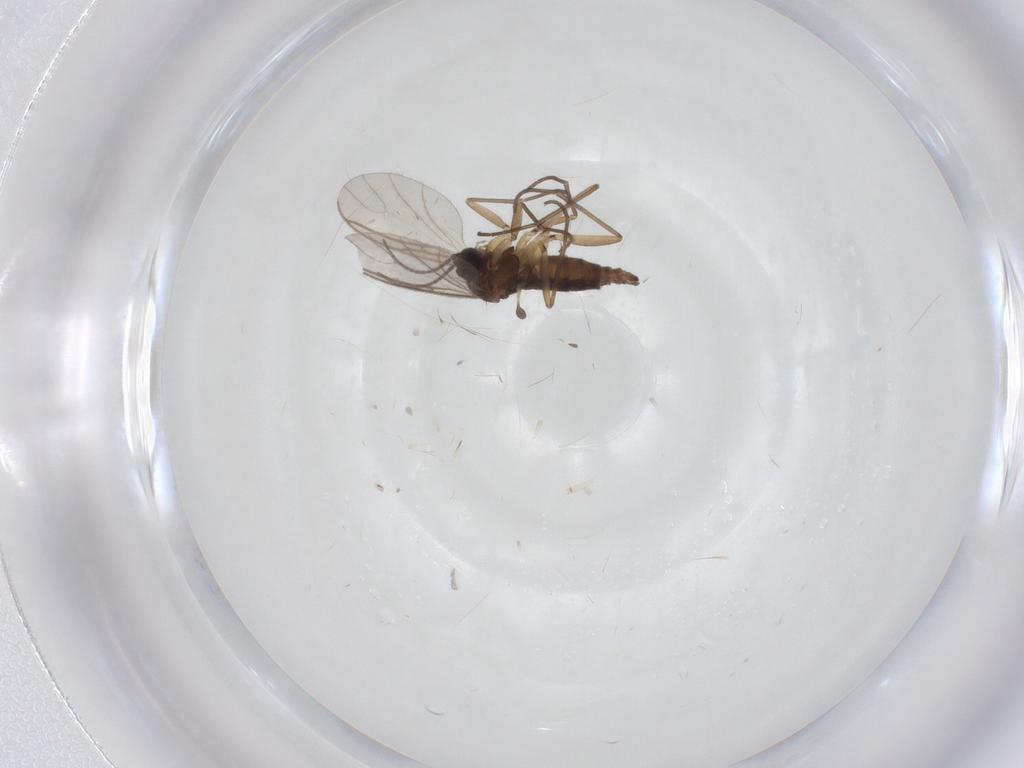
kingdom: Animalia
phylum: Arthropoda
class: Insecta
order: Diptera
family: Sciaridae
